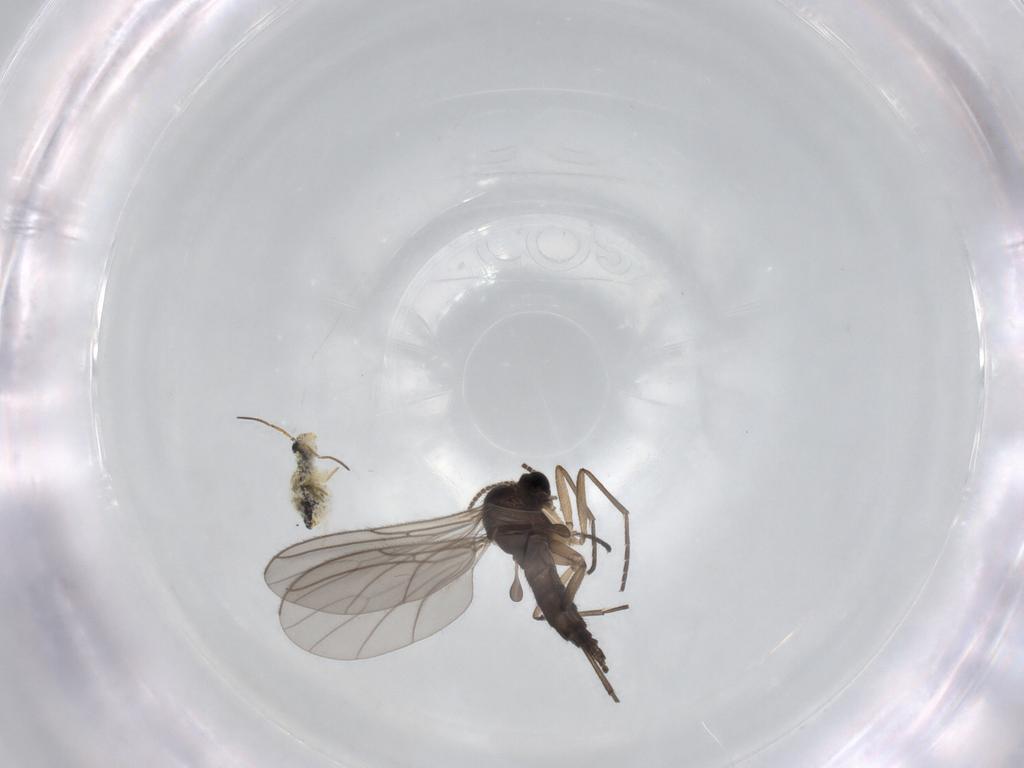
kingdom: Animalia
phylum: Arthropoda
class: Insecta
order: Diptera
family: Sciaridae
